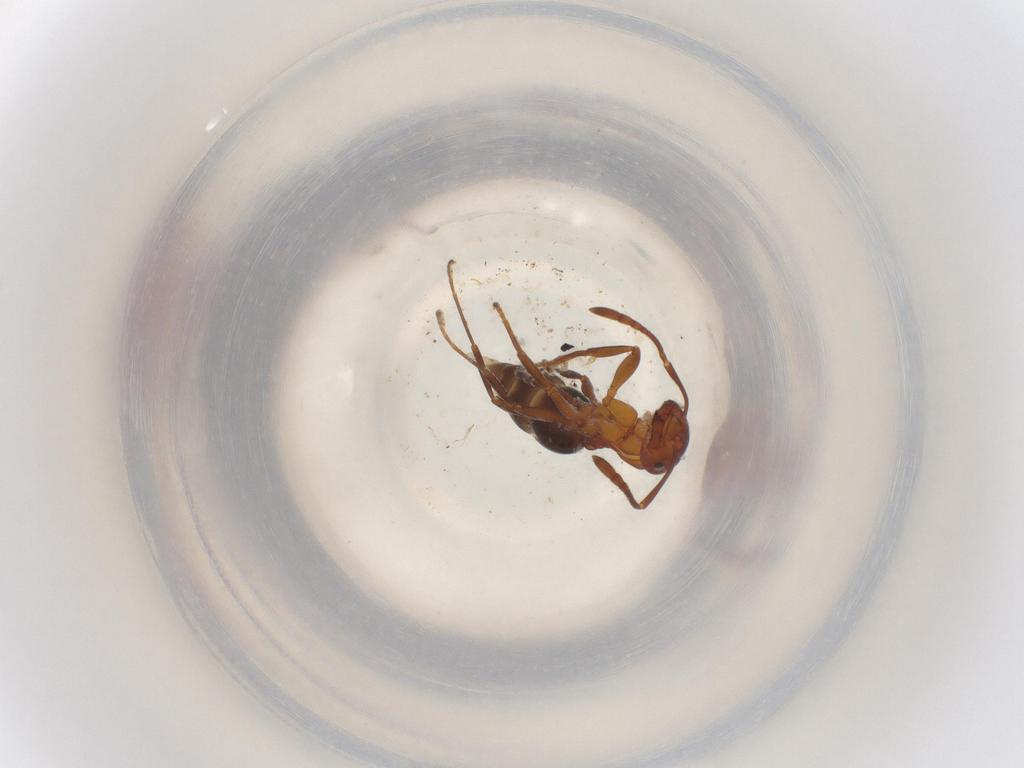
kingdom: Animalia
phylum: Arthropoda
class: Insecta
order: Hymenoptera
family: Formicidae
